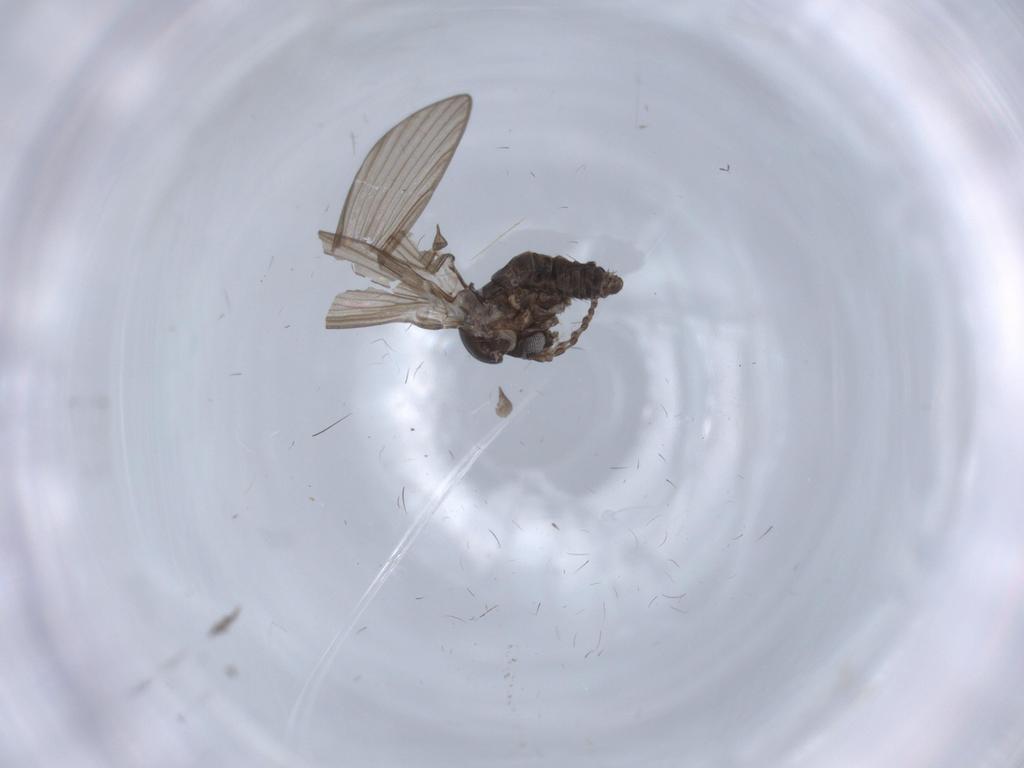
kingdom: Animalia
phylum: Arthropoda
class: Insecta
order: Diptera
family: Psychodidae
